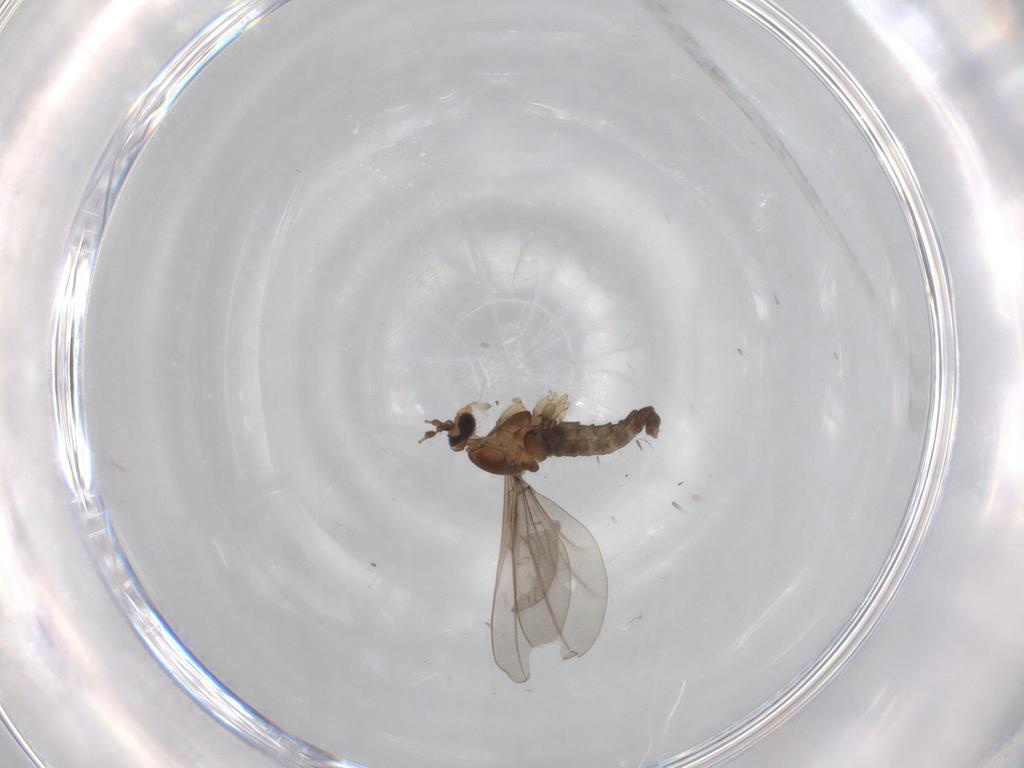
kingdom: Animalia
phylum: Arthropoda
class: Insecta
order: Diptera
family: Cecidomyiidae
